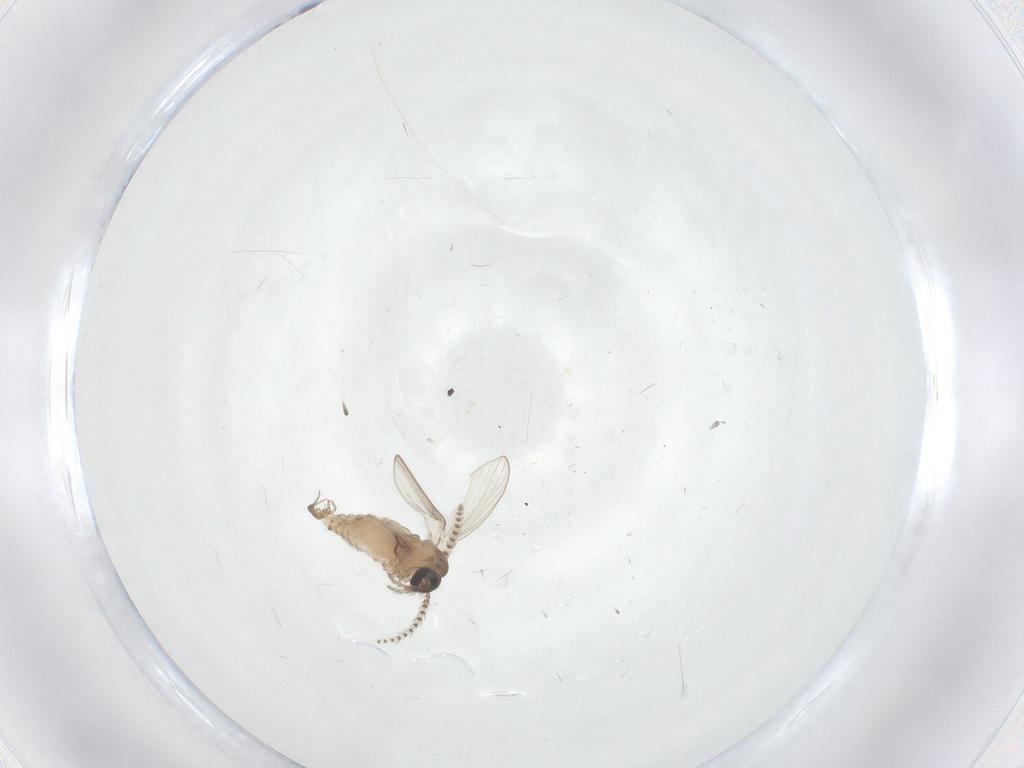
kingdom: Animalia
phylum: Arthropoda
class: Insecta
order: Diptera
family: Psychodidae
